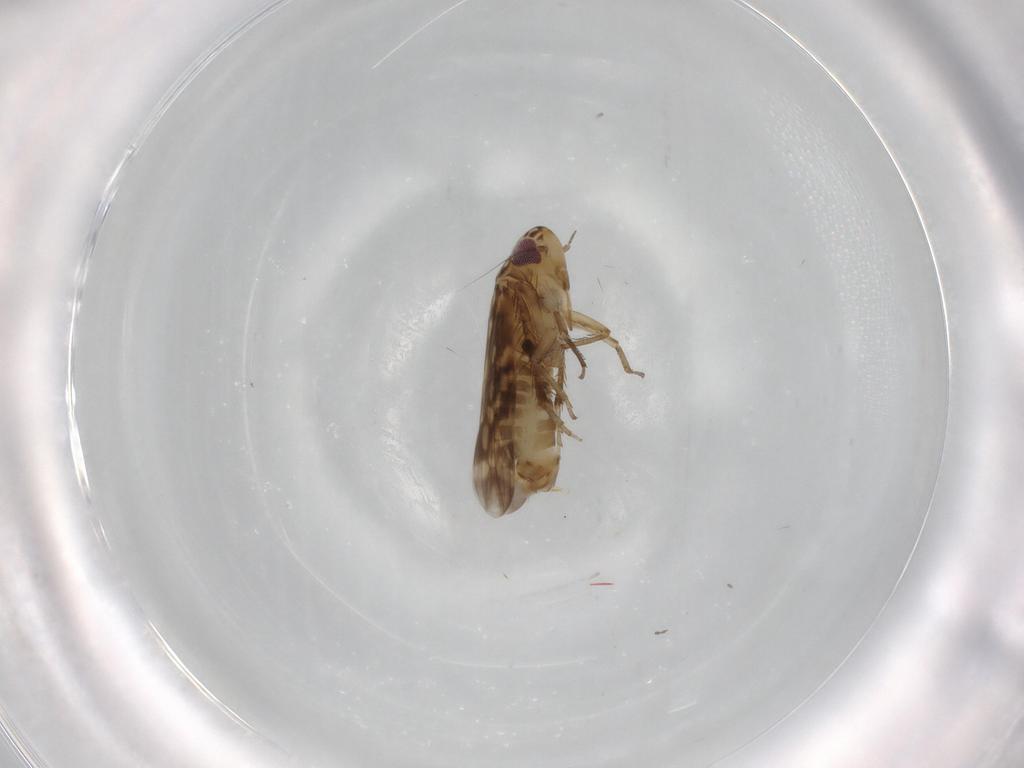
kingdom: Animalia
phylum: Arthropoda
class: Insecta
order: Hemiptera
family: Cicadellidae
